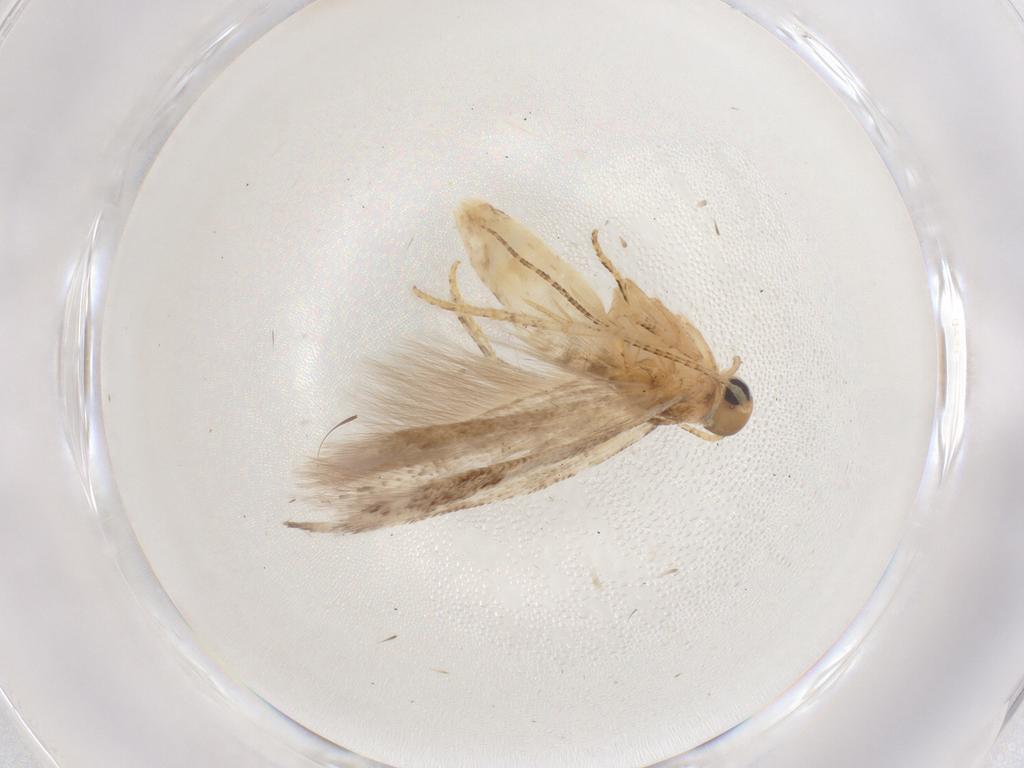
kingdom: Animalia
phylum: Arthropoda
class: Insecta
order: Lepidoptera
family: Gelechiidae
